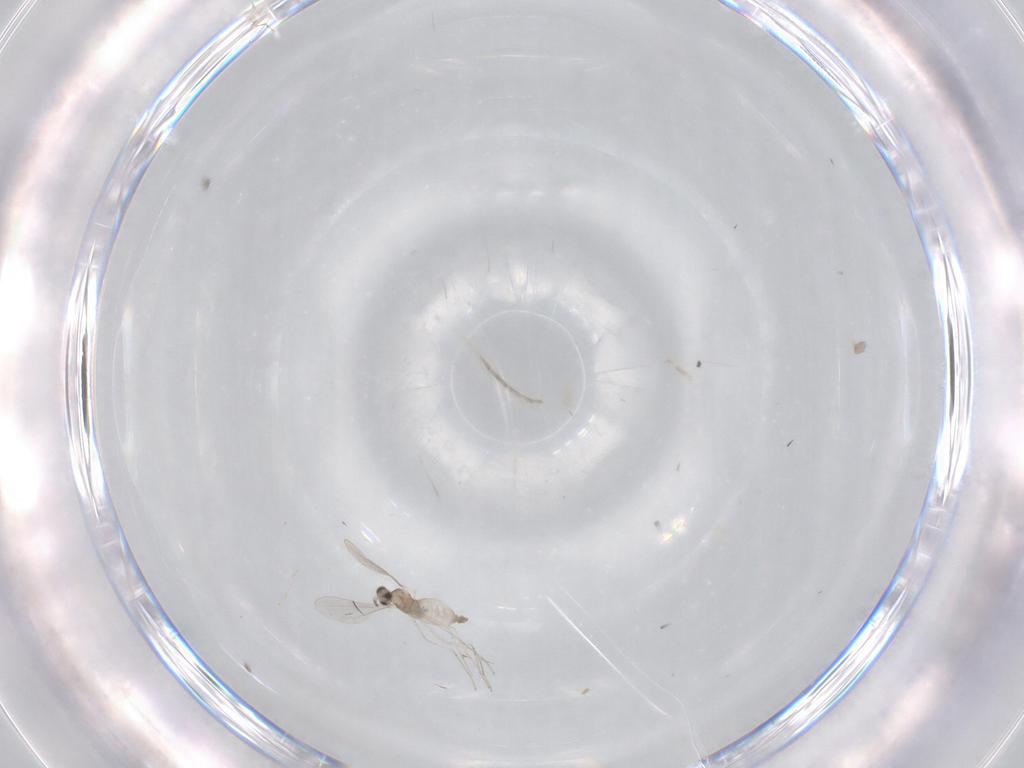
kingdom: Animalia
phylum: Arthropoda
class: Insecta
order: Diptera
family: Cecidomyiidae
